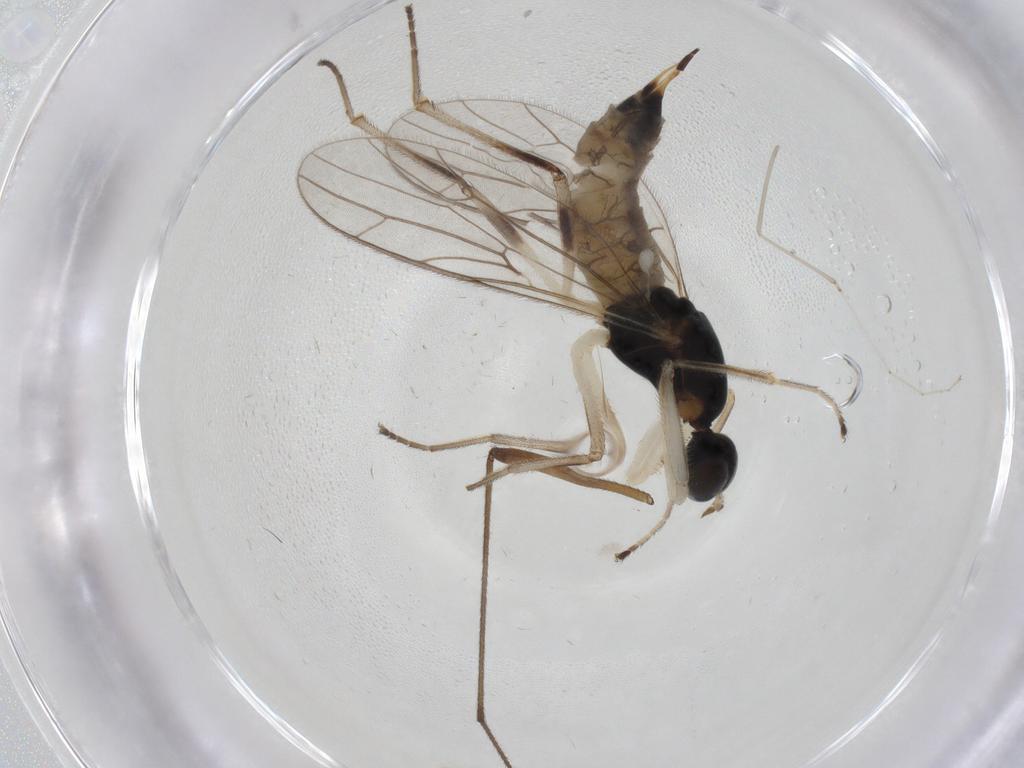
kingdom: Animalia
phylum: Arthropoda
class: Insecta
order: Diptera
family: Empididae
